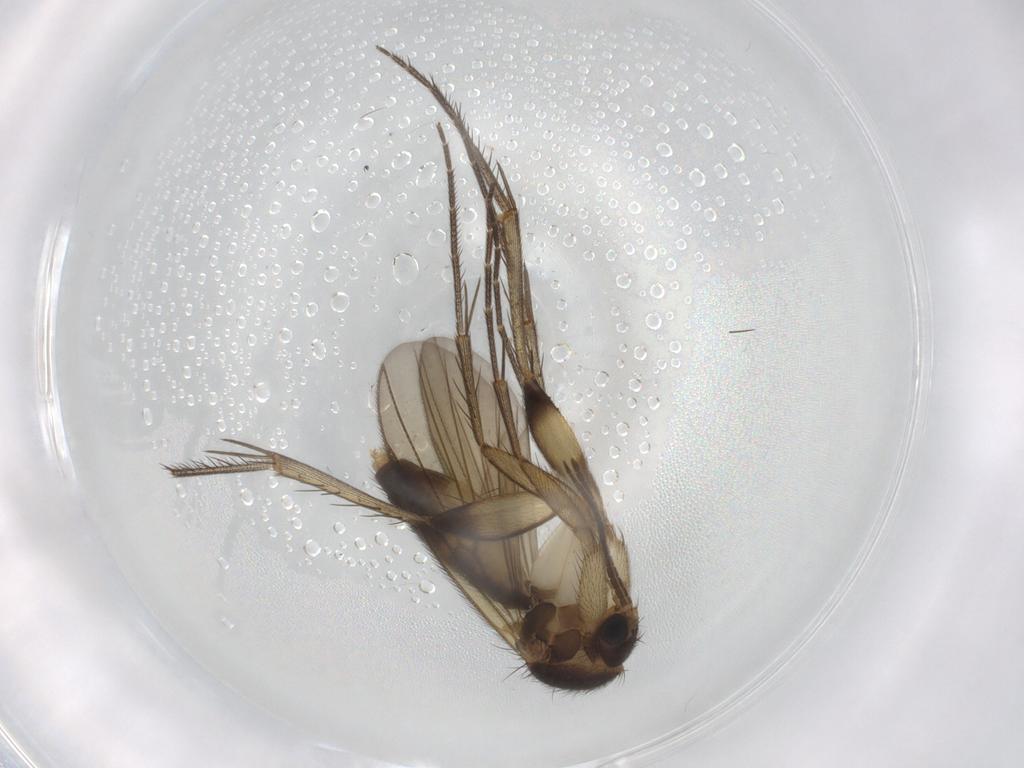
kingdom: Animalia
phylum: Arthropoda
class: Insecta
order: Diptera
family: Chironomidae
